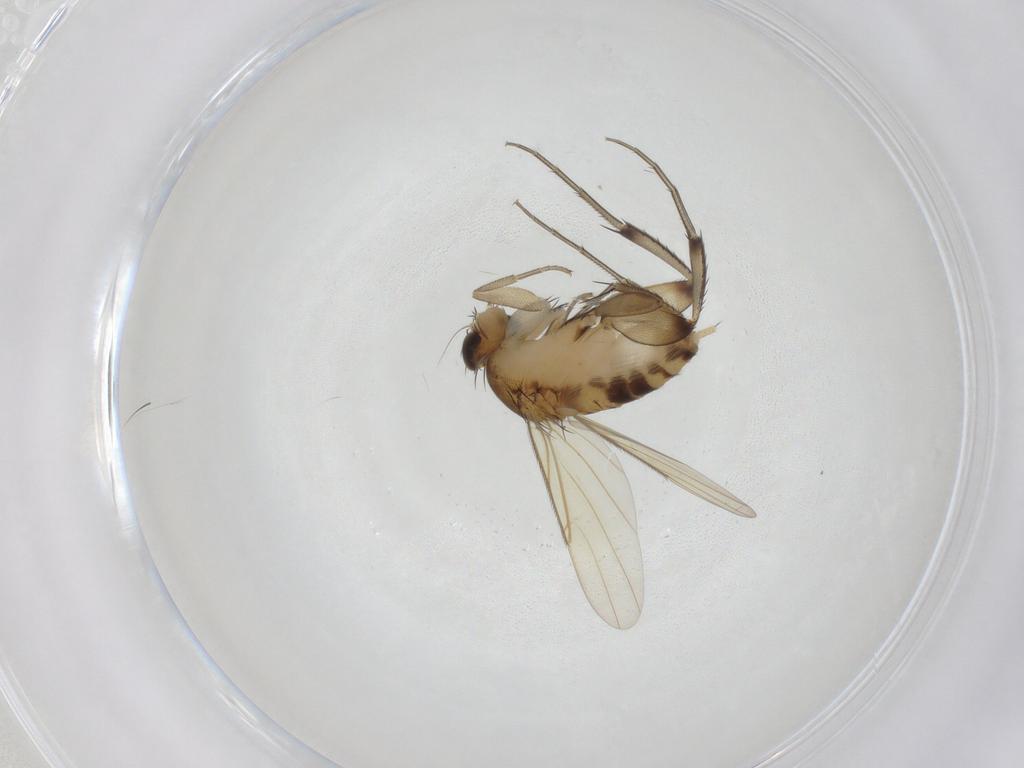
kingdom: Animalia
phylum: Arthropoda
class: Insecta
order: Diptera
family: Phoridae
